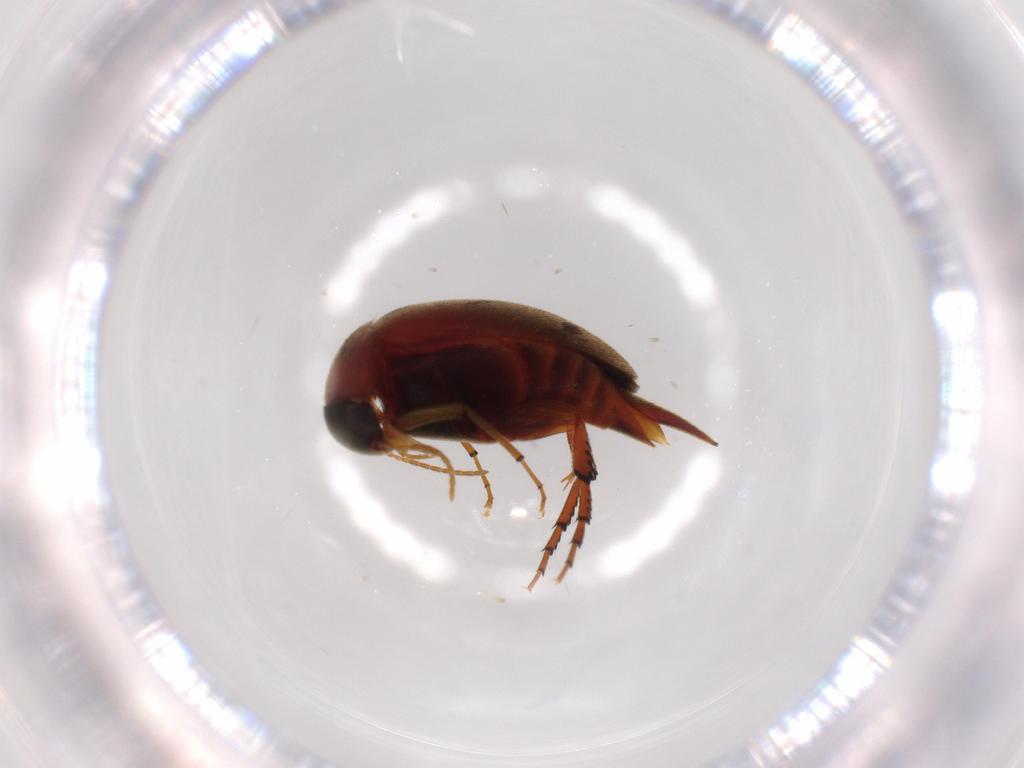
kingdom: Animalia
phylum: Arthropoda
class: Insecta
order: Coleoptera
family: Mordellidae
